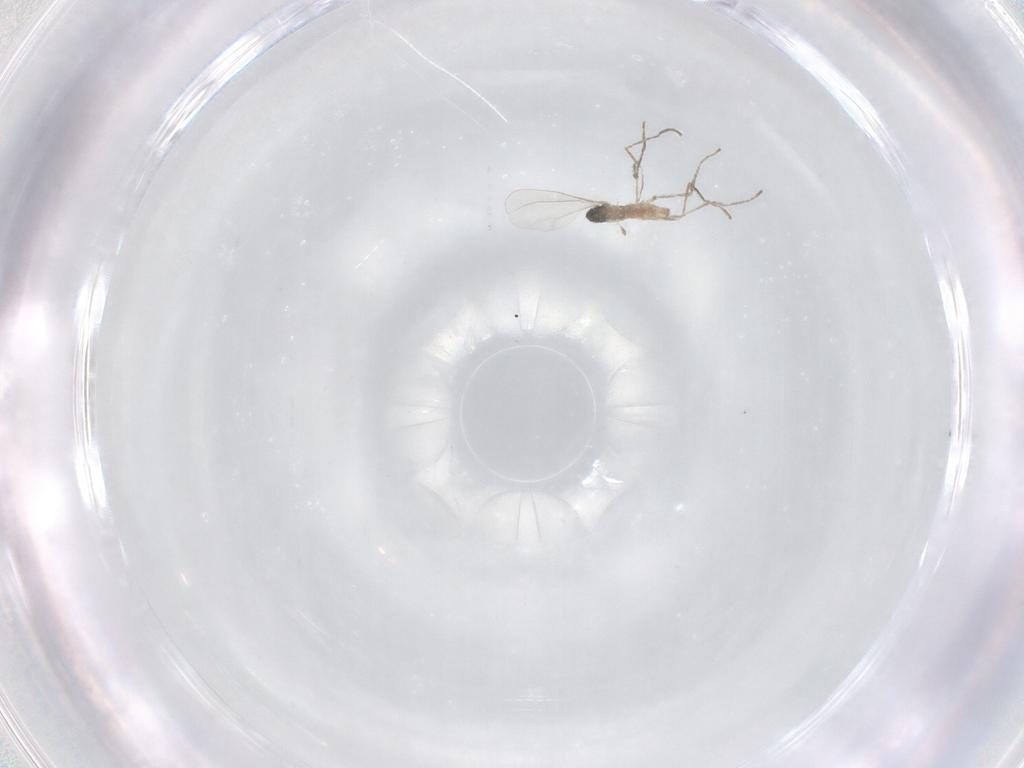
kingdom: Animalia
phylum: Arthropoda
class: Insecta
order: Diptera
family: Cecidomyiidae
